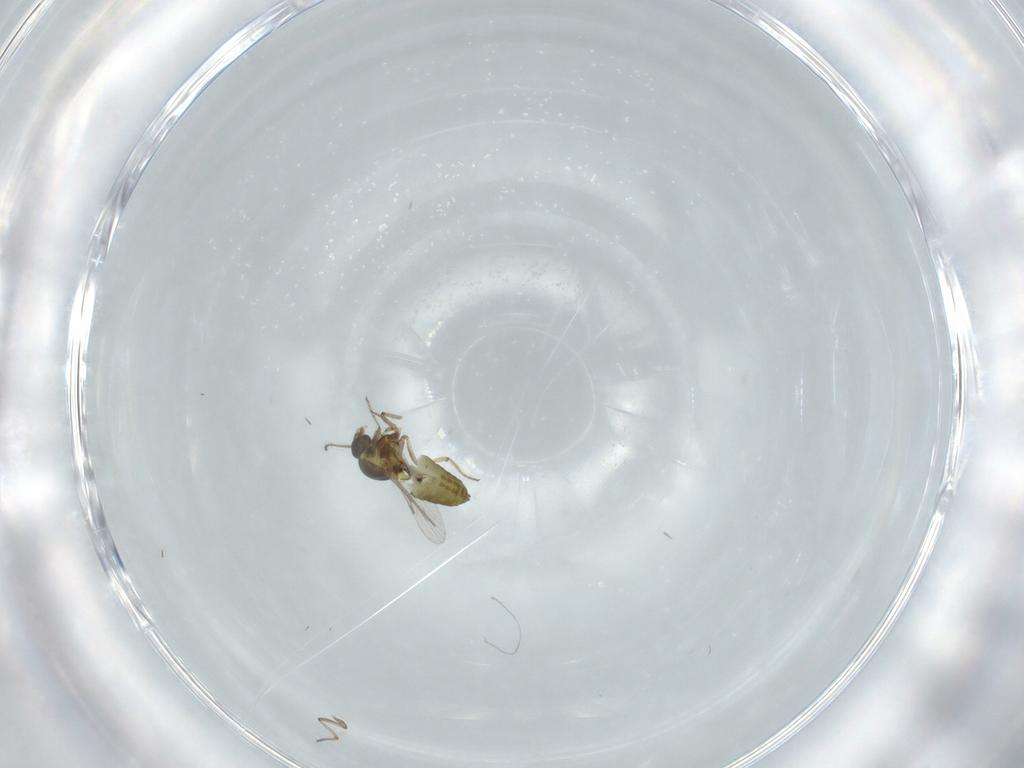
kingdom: Animalia
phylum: Arthropoda
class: Insecta
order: Diptera
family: Ceratopogonidae
